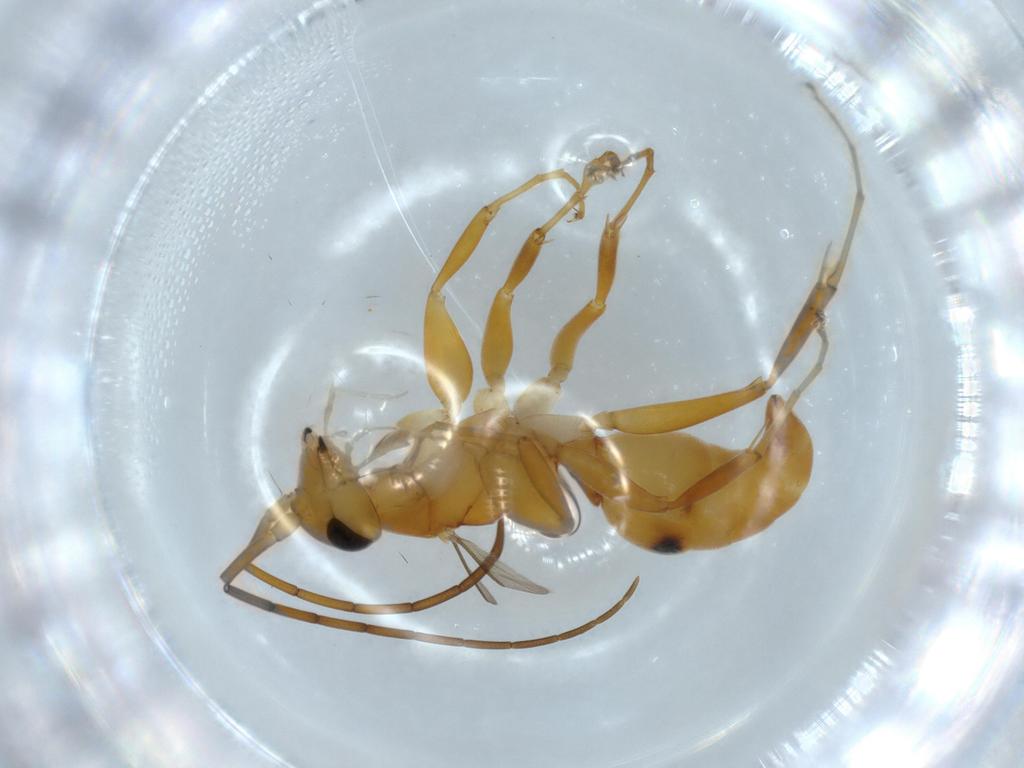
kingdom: Animalia
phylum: Arthropoda
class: Insecta
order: Hymenoptera
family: Rhopalosomatidae
